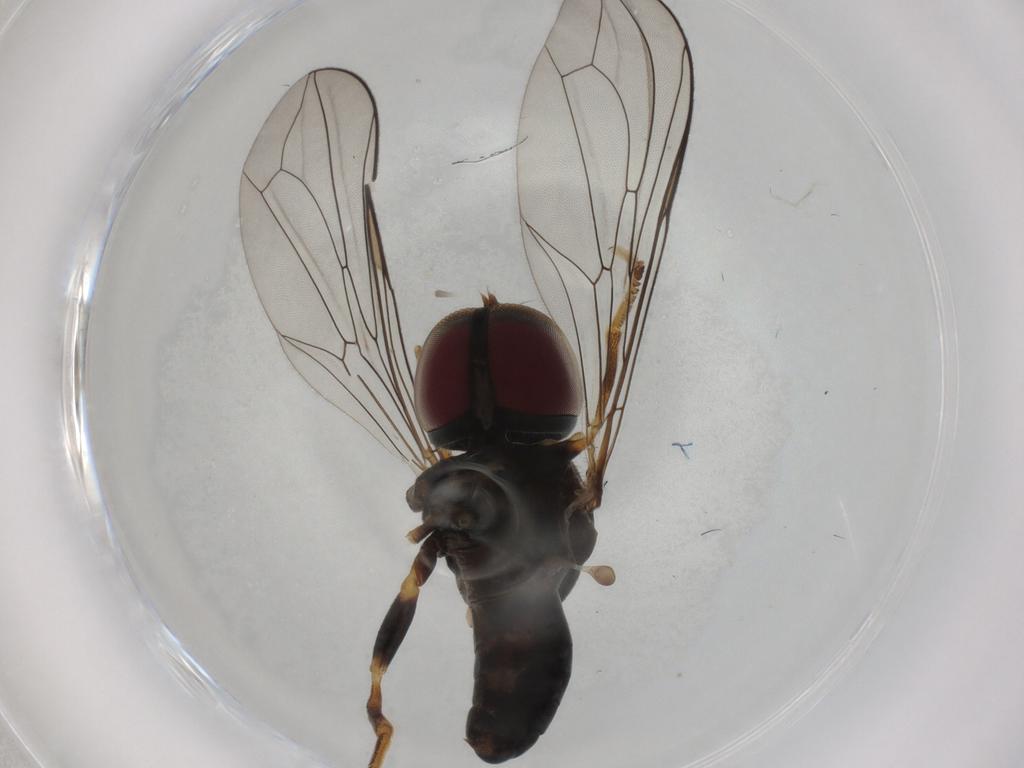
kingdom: Animalia
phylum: Arthropoda
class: Insecta
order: Diptera
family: Pipunculidae
